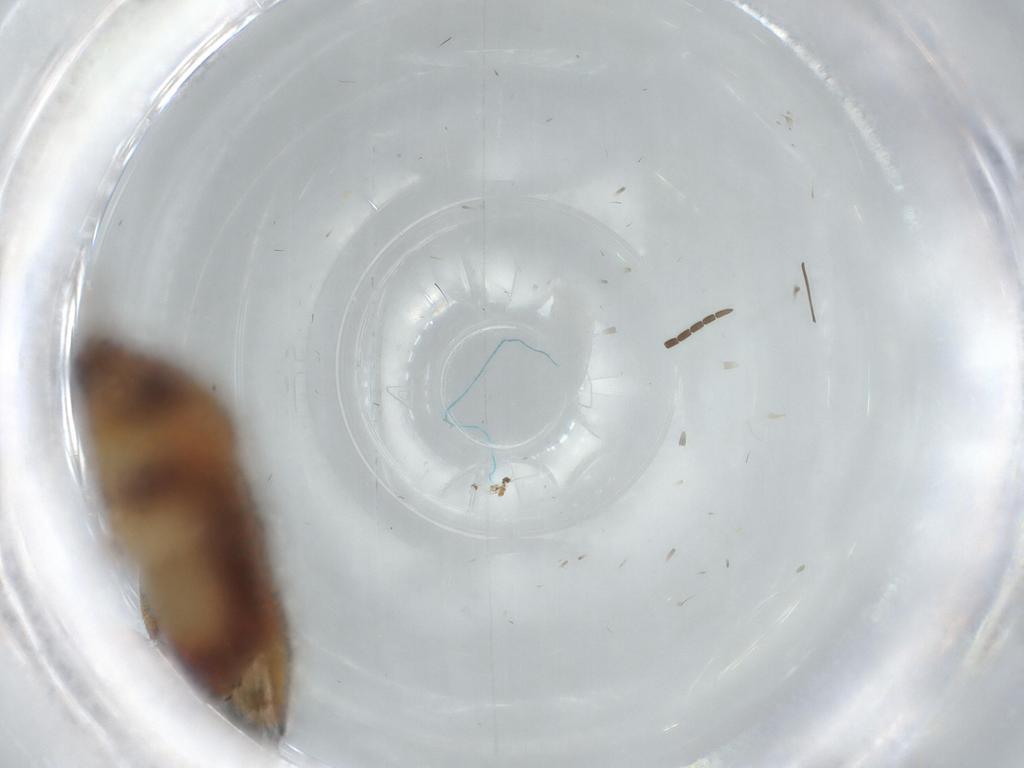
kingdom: Animalia
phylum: Arthropoda
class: Insecta
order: Hemiptera
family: Miridae
